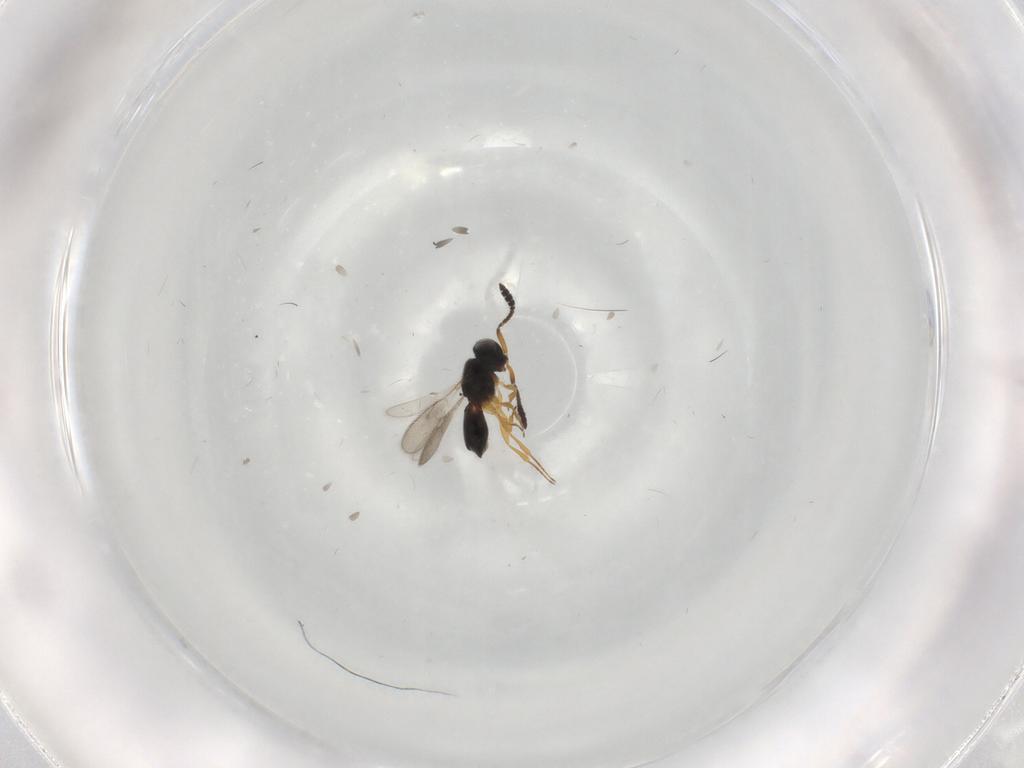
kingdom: Animalia
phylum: Arthropoda
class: Insecta
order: Hymenoptera
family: Scelionidae
